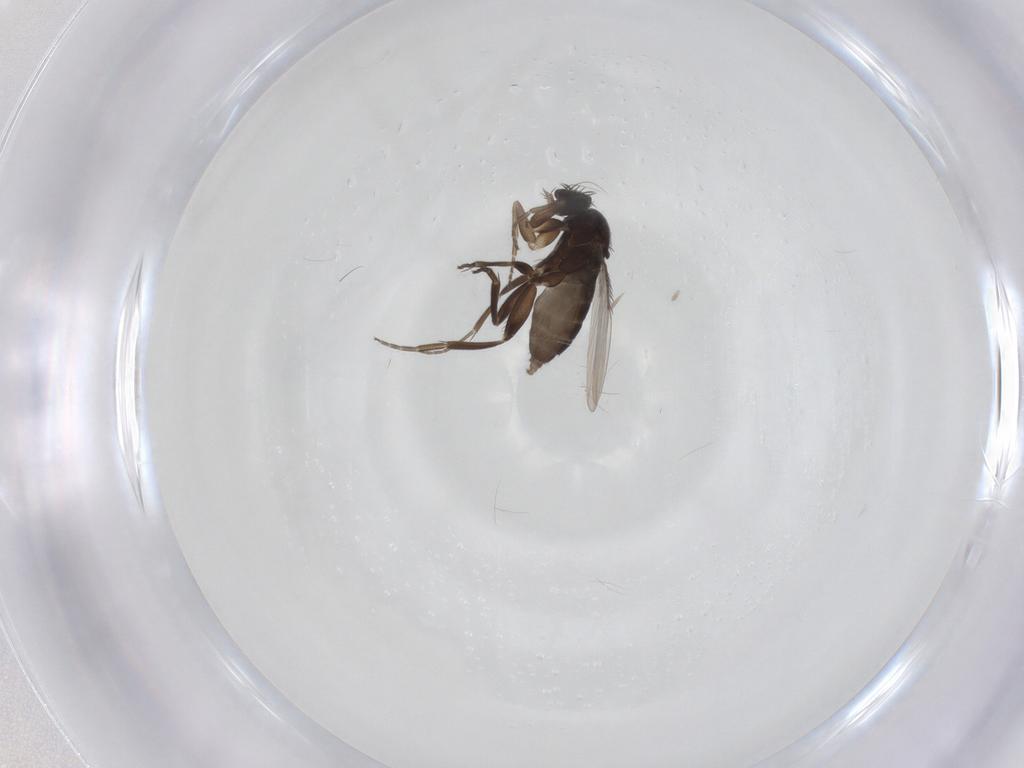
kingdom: Animalia
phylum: Arthropoda
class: Insecta
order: Diptera
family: Phoridae
